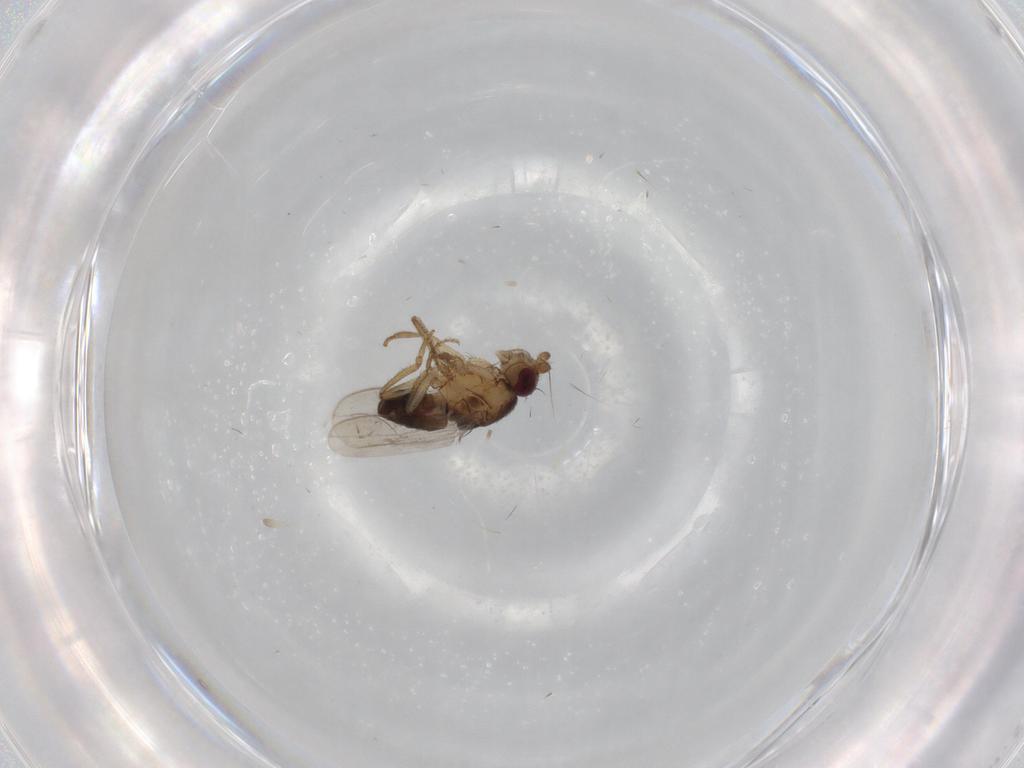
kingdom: Animalia
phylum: Arthropoda
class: Insecta
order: Diptera
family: Sphaeroceridae
